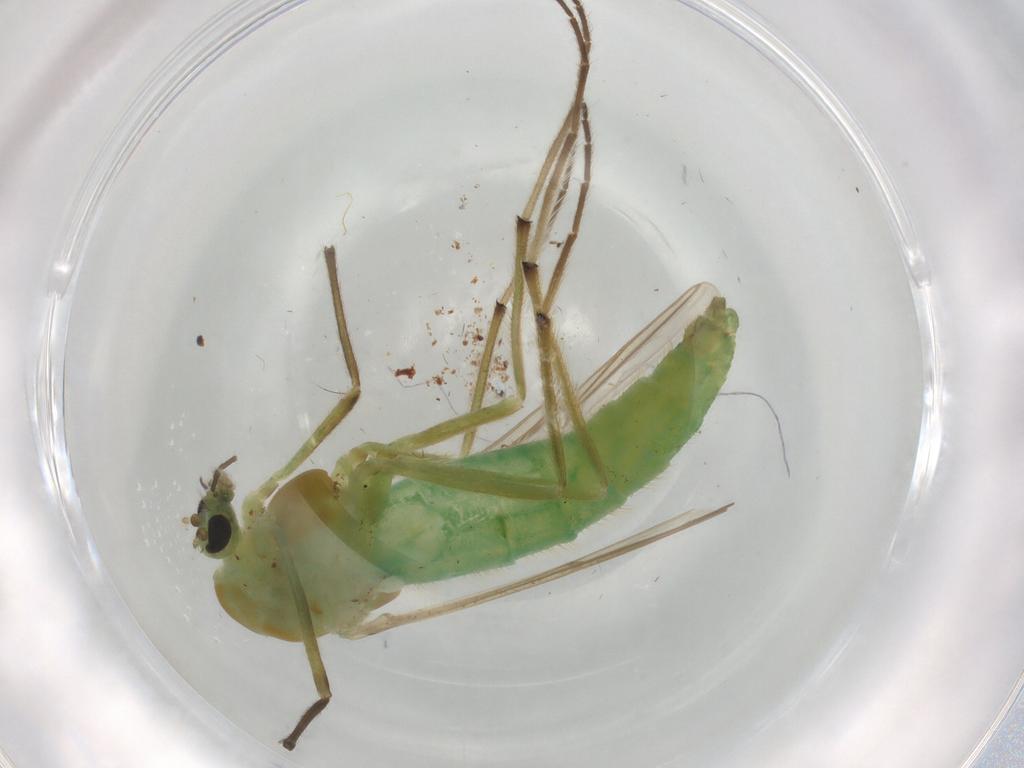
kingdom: Animalia
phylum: Arthropoda
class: Insecta
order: Diptera
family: Chironomidae
